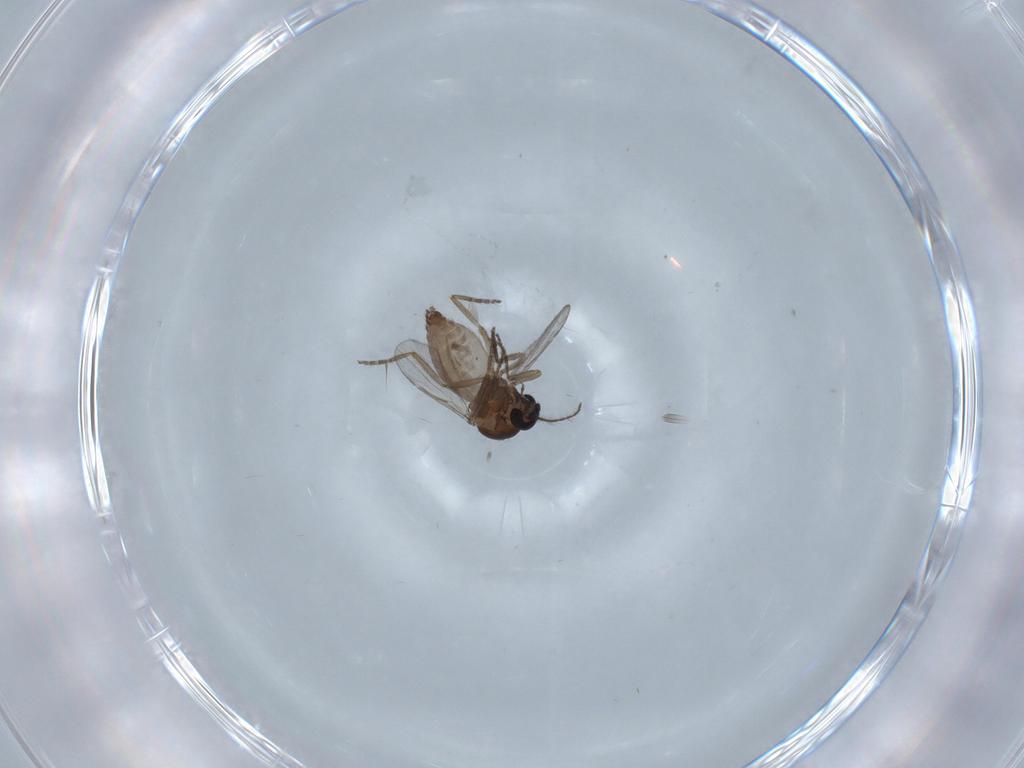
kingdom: Animalia
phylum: Arthropoda
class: Insecta
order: Diptera
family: Ceratopogonidae
